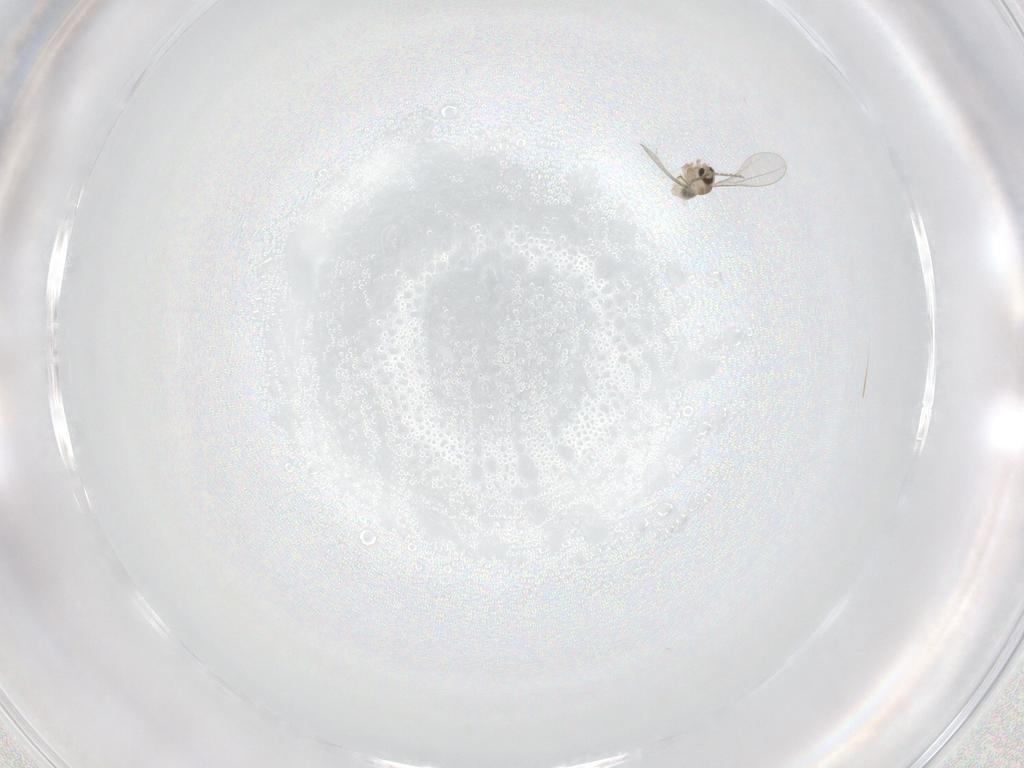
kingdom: Animalia
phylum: Arthropoda
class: Insecta
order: Diptera
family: Cecidomyiidae
